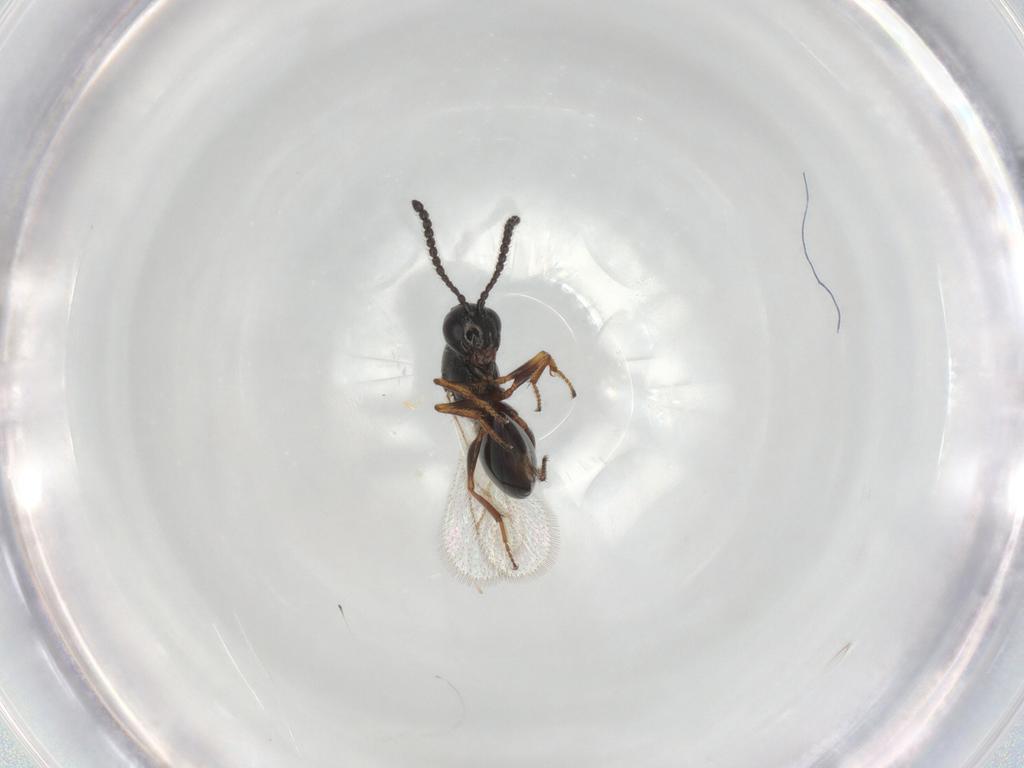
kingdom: Animalia
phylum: Arthropoda
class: Insecta
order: Hymenoptera
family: Figitidae
